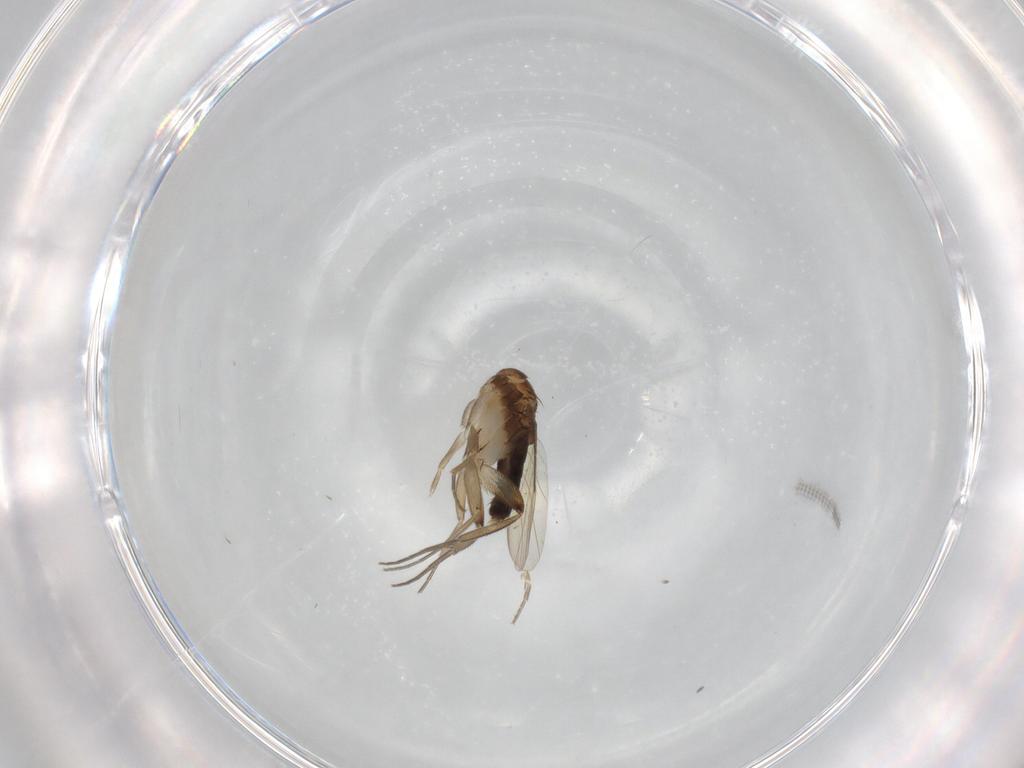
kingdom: Animalia
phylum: Arthropoda
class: Insecta
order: Diptera
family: Phoridae
